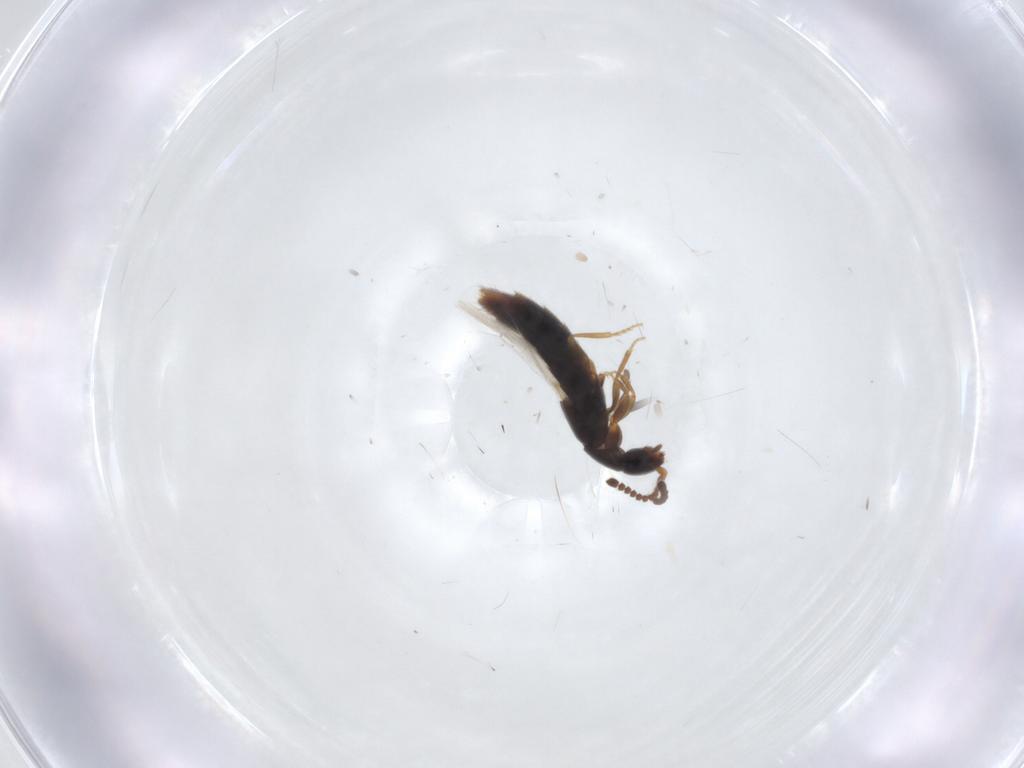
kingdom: Animalia
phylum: Arthropoda
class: Insecta
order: Coleoptera
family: Staphylinidae
